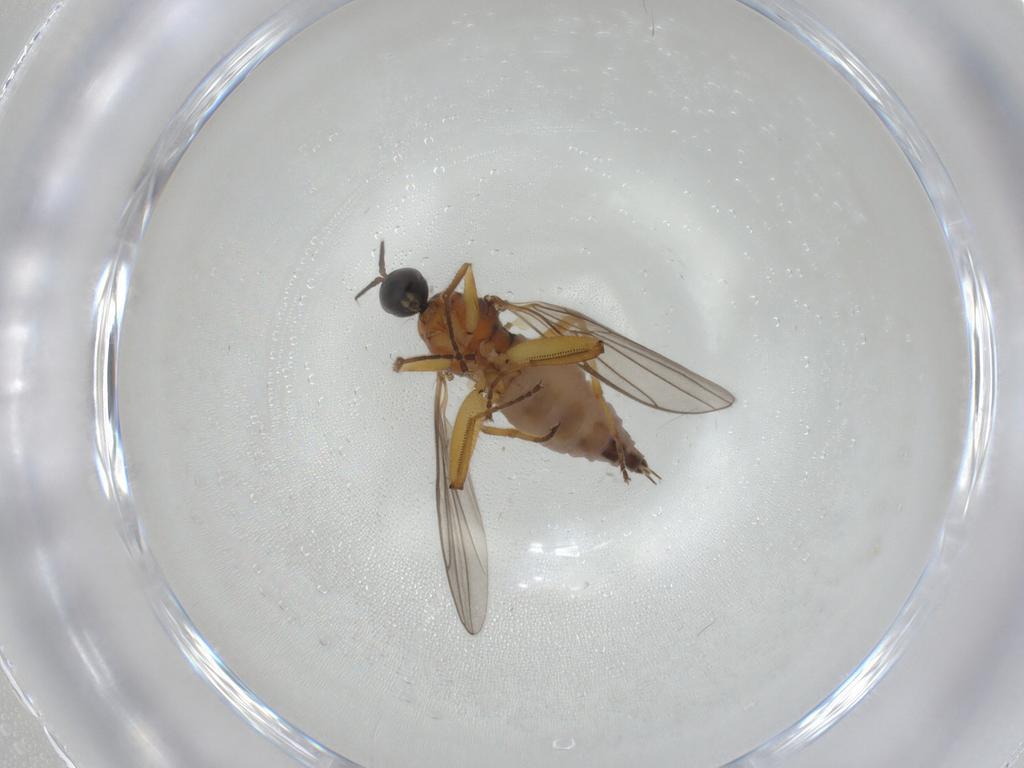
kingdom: Animalia
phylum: Arthropoda
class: Insecta
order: Diptera
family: Hybotidae
